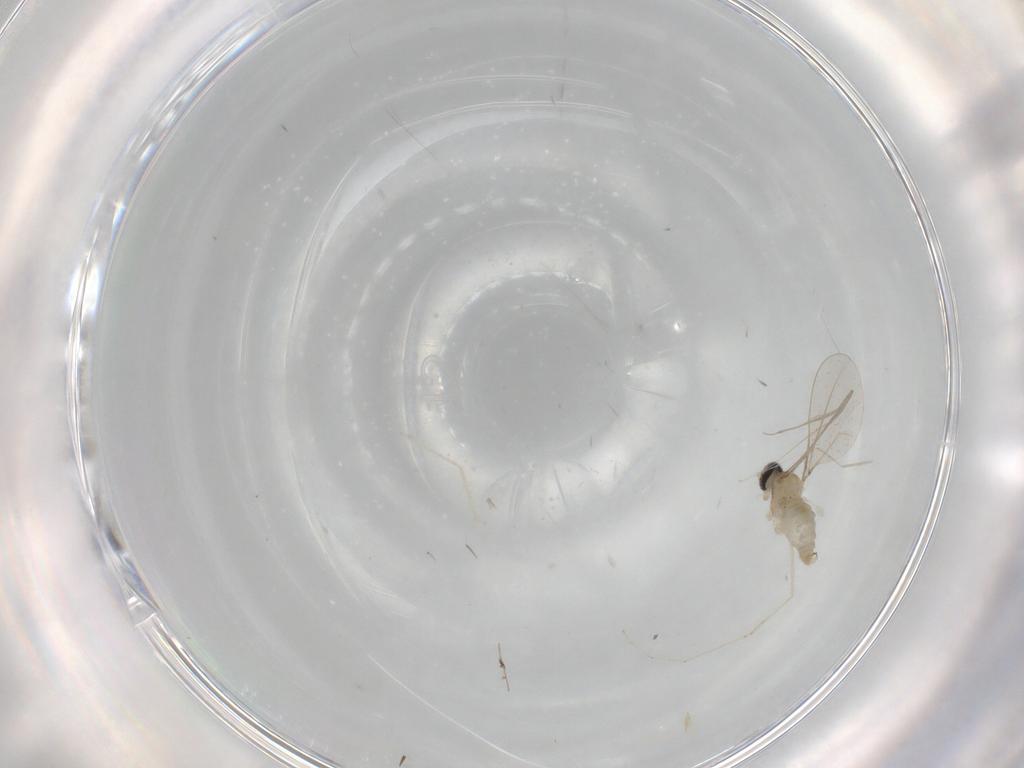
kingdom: Animalia
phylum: Arthropoda
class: Insecta
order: Diptera
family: Cecidomyiidae
